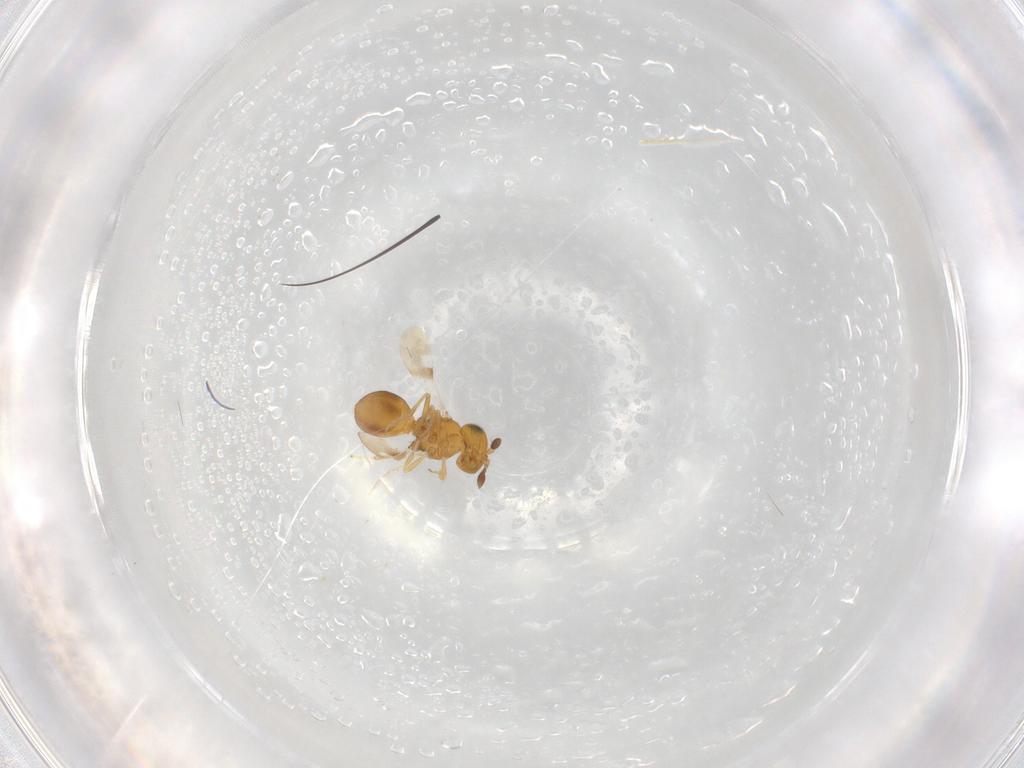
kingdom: Animalia
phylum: Arthropoda
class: Insecta
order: Hymenoptera
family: Scelionidae
